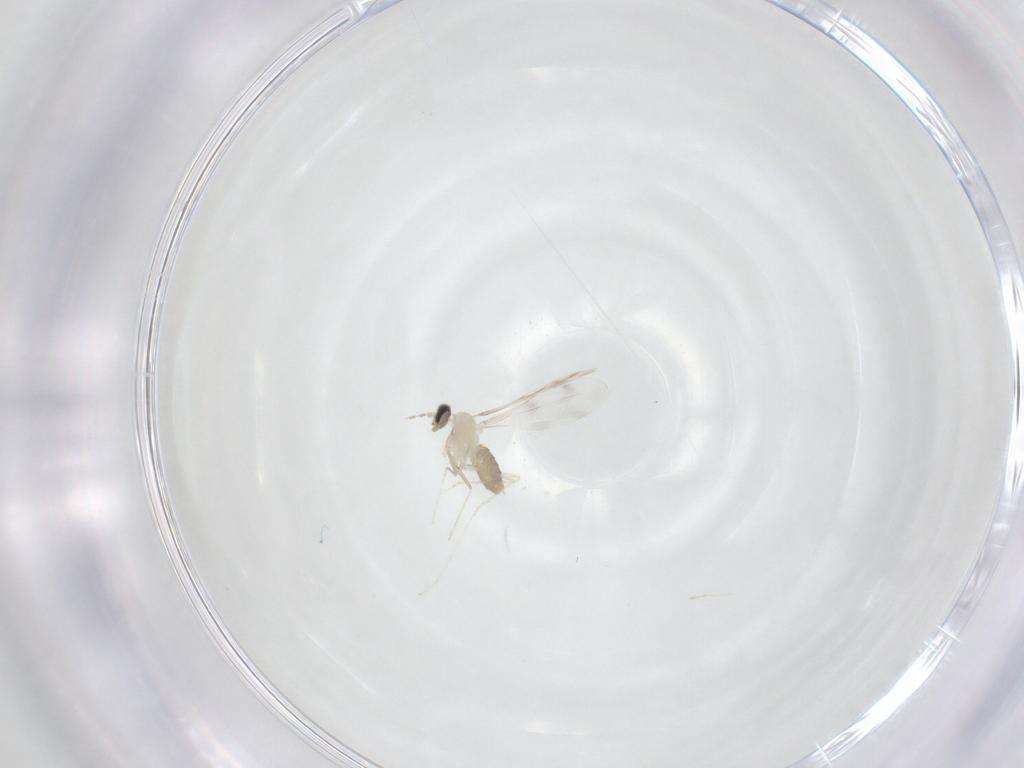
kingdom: Animalia
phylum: Arthropoda
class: Insecta
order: Diptera
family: Cecidomyiidae
